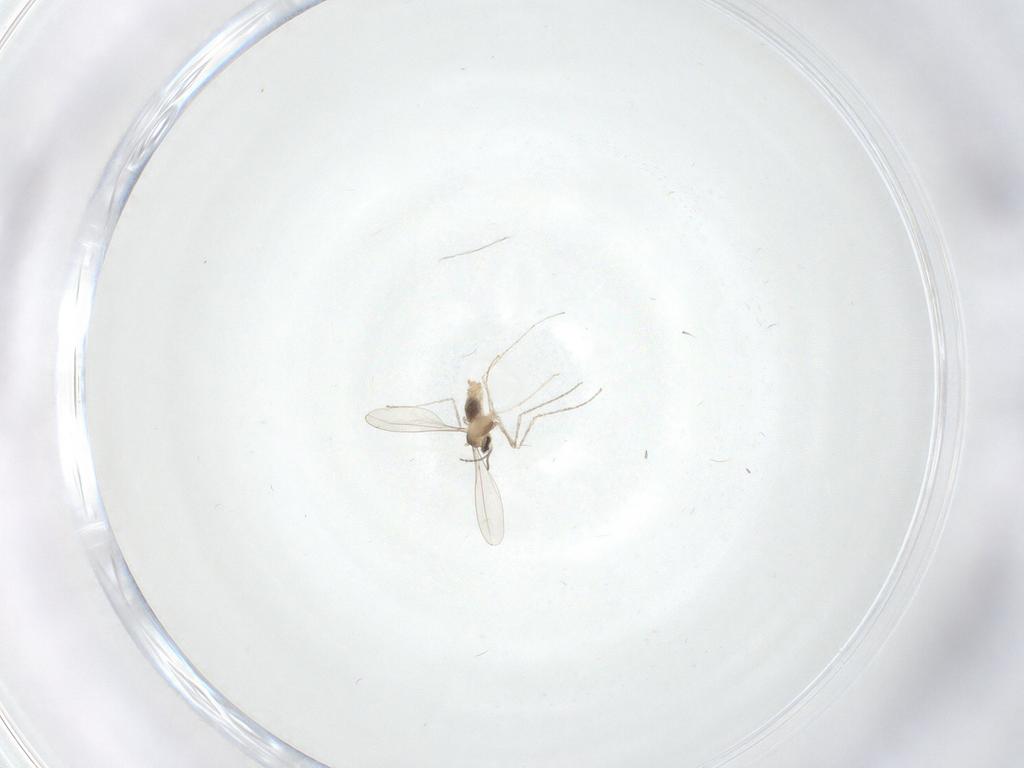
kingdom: Animalia
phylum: Arthropoda
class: Insecta
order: Diptera
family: Cecidomyiidae
